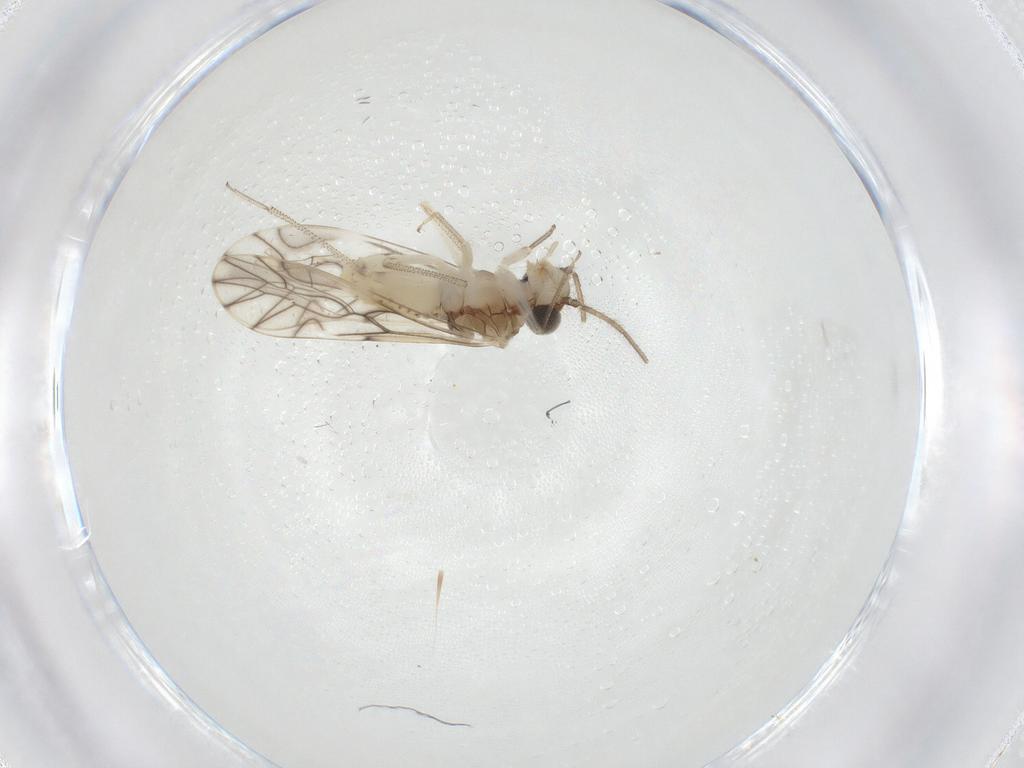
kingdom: Animalia
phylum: Arthropoda
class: Insecta
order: Psocodea
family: Caeciliusidae
